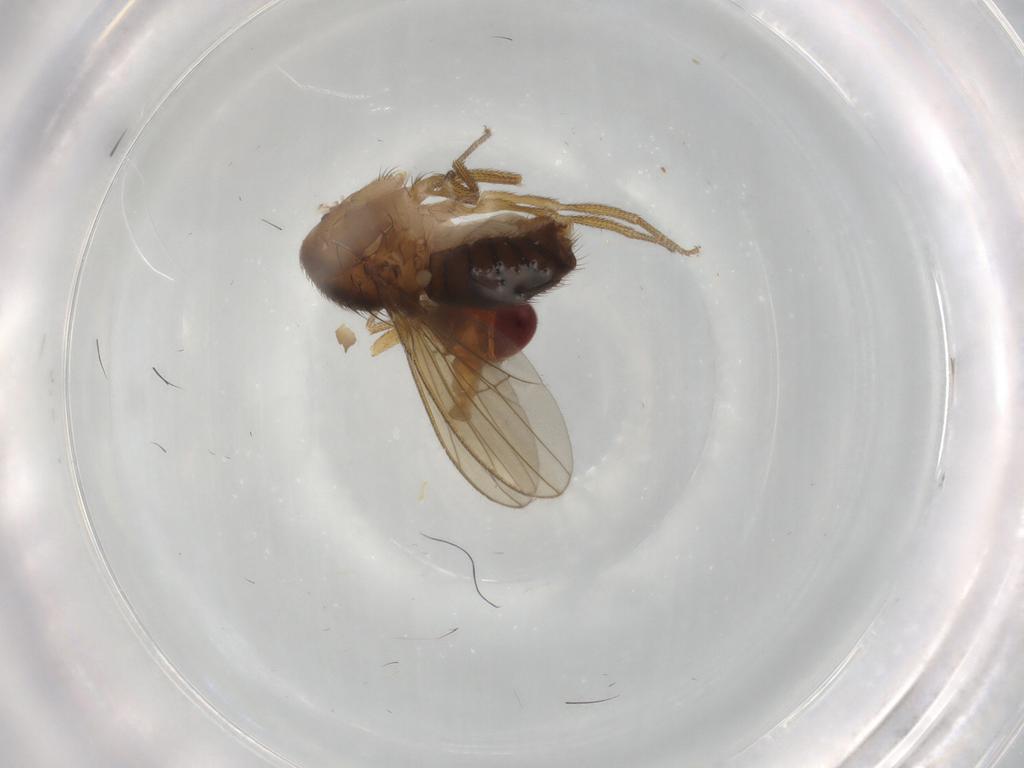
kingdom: Animalia
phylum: Arthropoda
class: Insecta
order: Diptera
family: Drosophilidae
